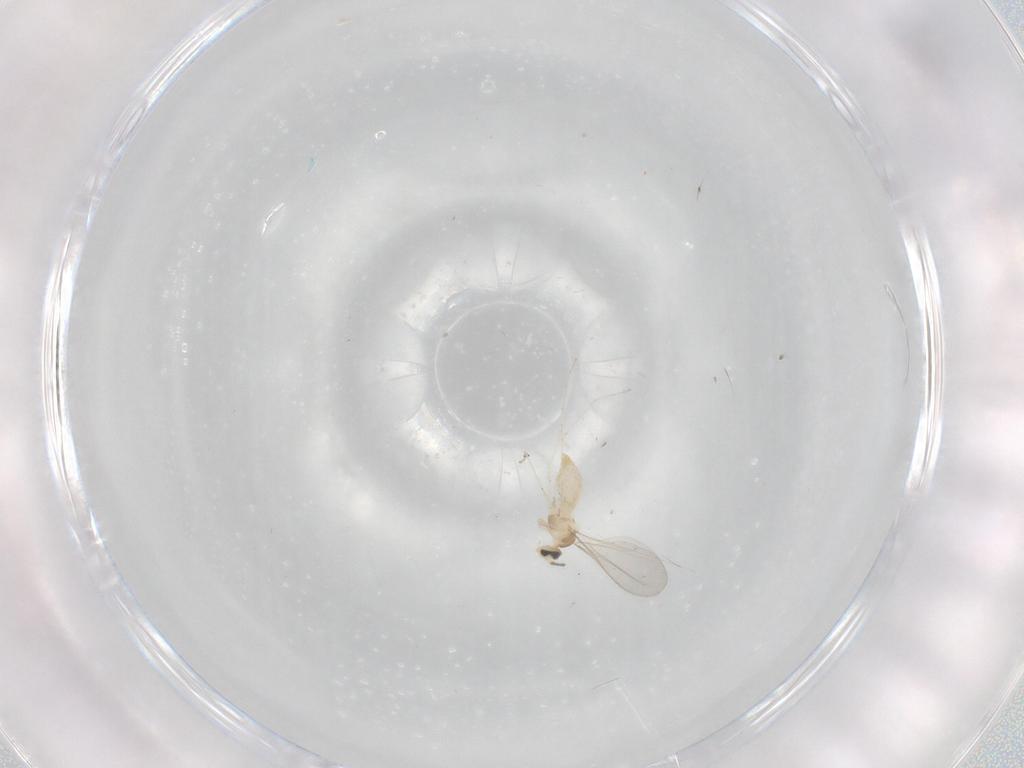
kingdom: Animalia
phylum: Arthropoda
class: Insecta
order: Diptera
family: Cecidomyiidae
